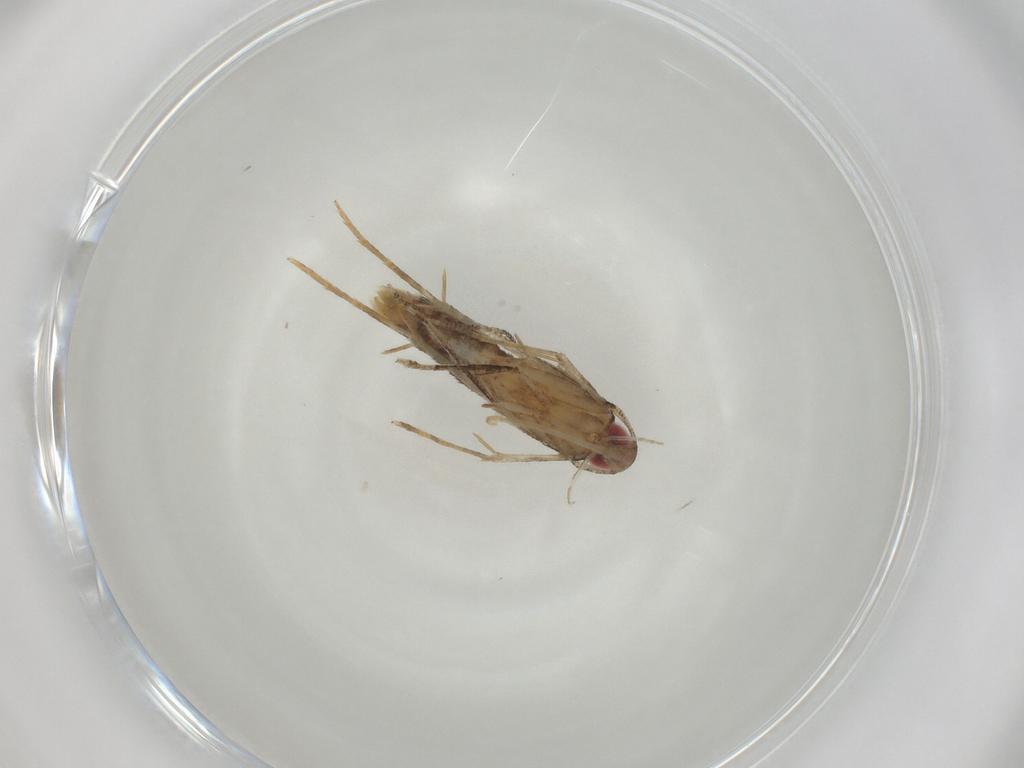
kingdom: Animalia
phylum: Arthropoda
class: Insecta
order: Lepidoptera
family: Cosmopterigidae
